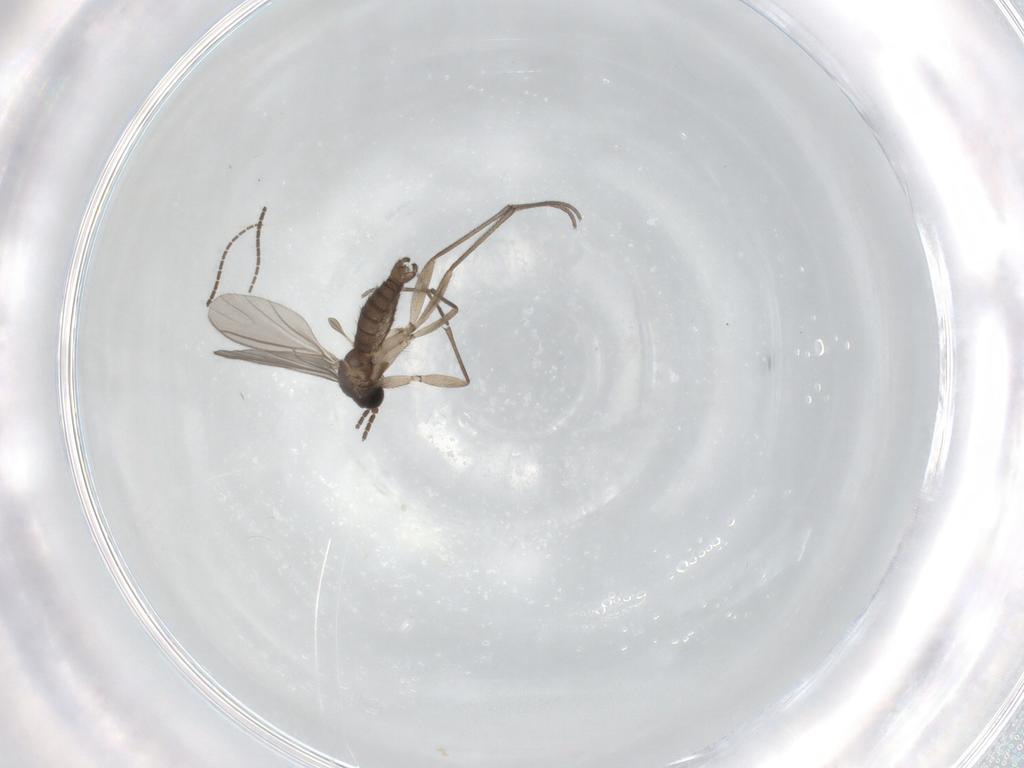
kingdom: Animalia
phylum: Arthropoda
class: Insecta
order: Diptera
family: Sciaridae
